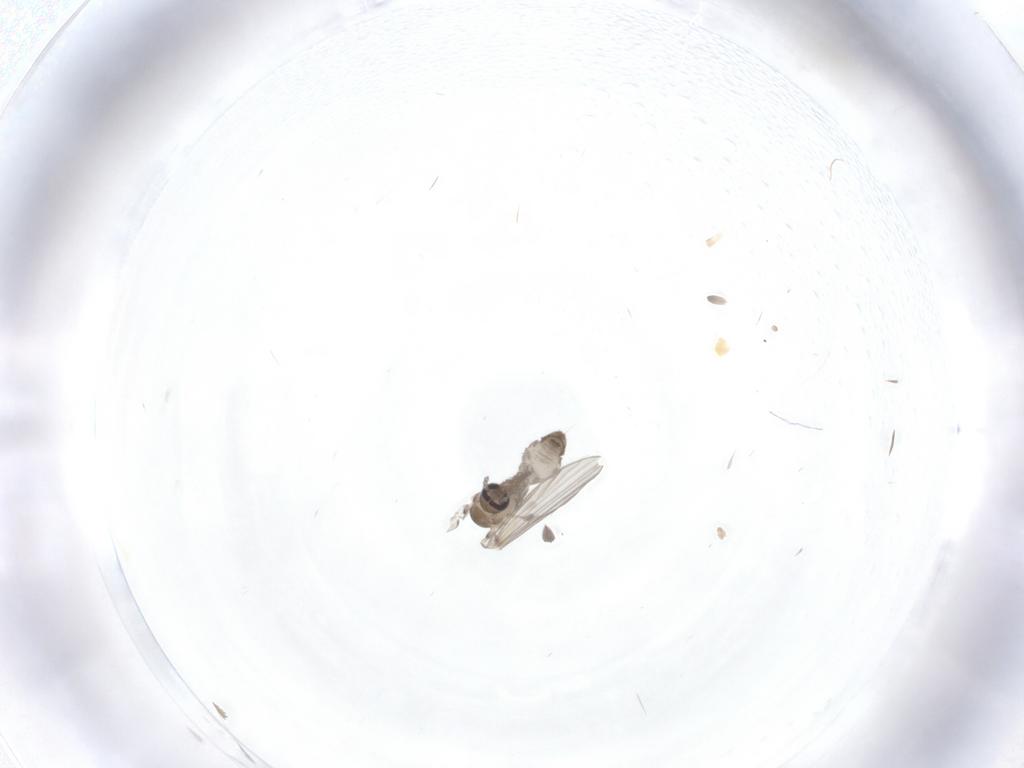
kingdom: Animalia
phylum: Arthropoda
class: Insecta
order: Diptera
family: Psychodidae
